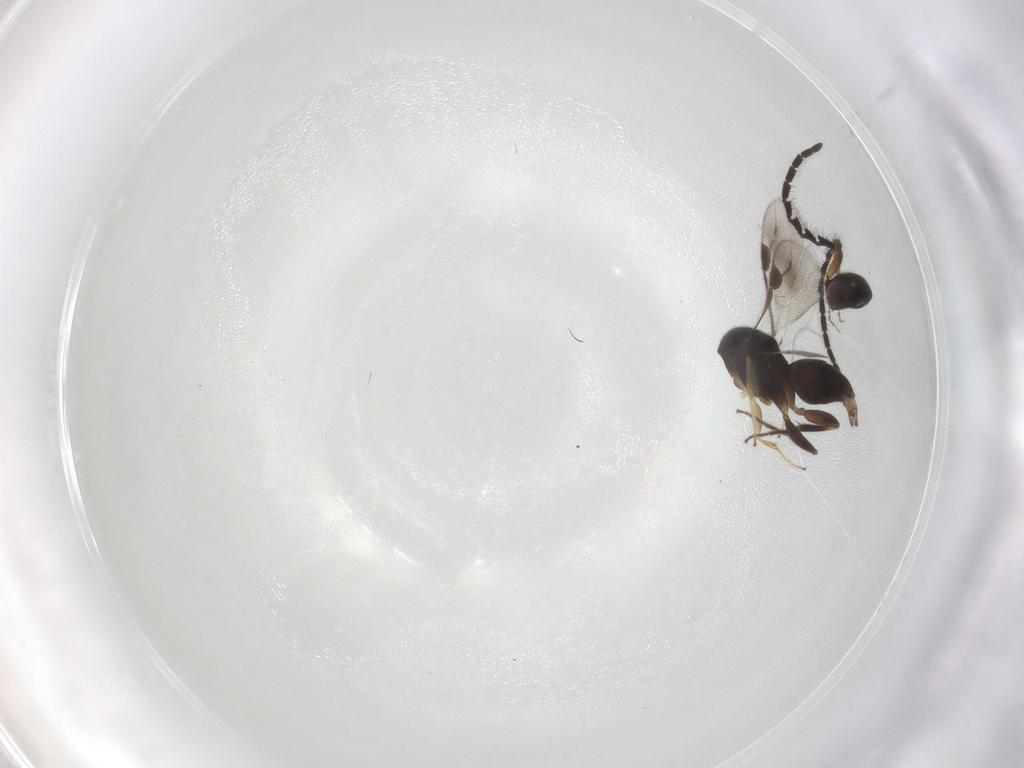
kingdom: Animalia
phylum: Arthropoda
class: Insecta
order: Hymenoptera
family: Megaspilidae
